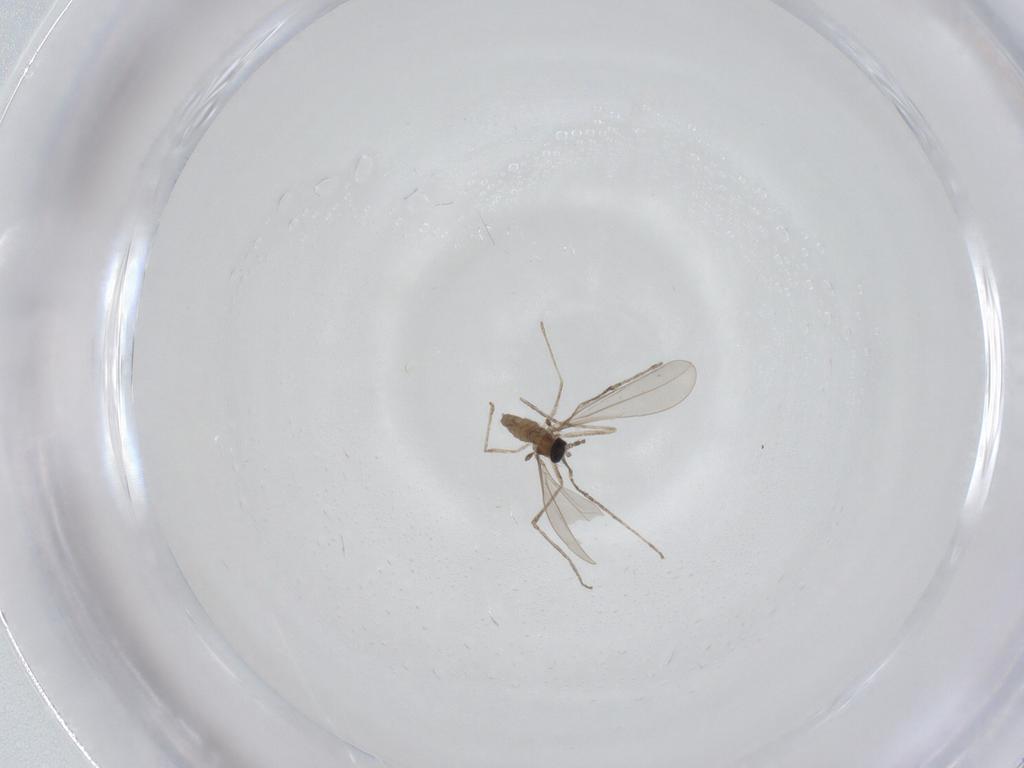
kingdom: Animalia
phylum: Arthropoda
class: Insecta
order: Diptera
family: Cecidomyiidae
